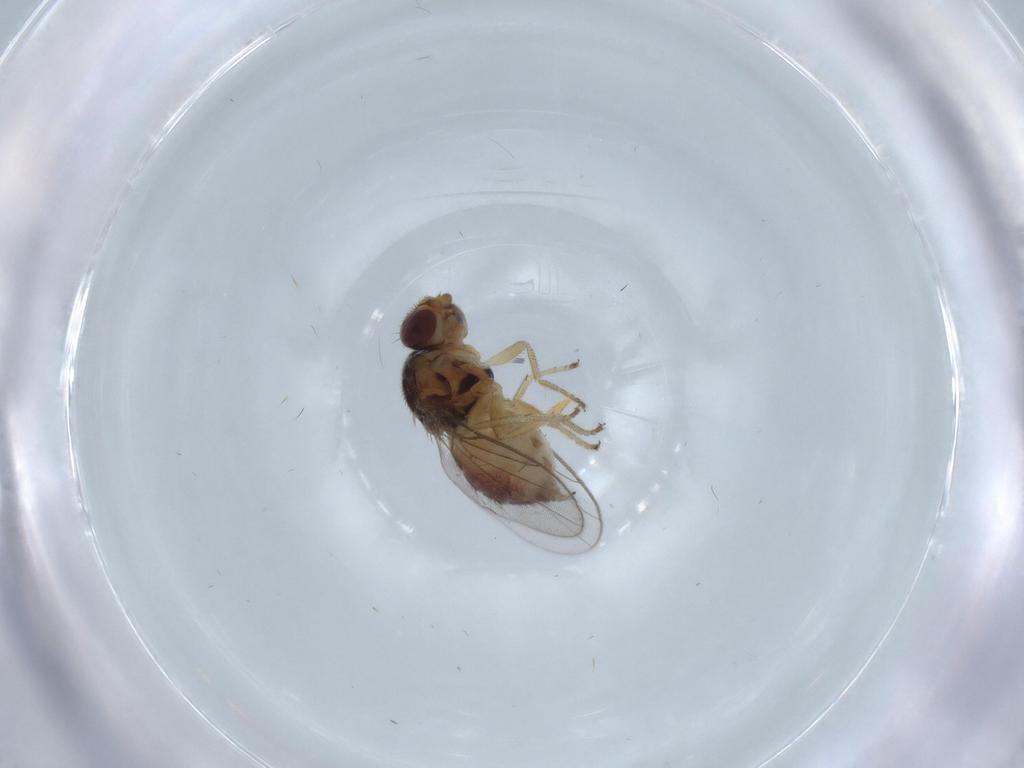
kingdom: Animalia
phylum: Arthropoda
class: Insecta
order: Diptera
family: Chloropidae
